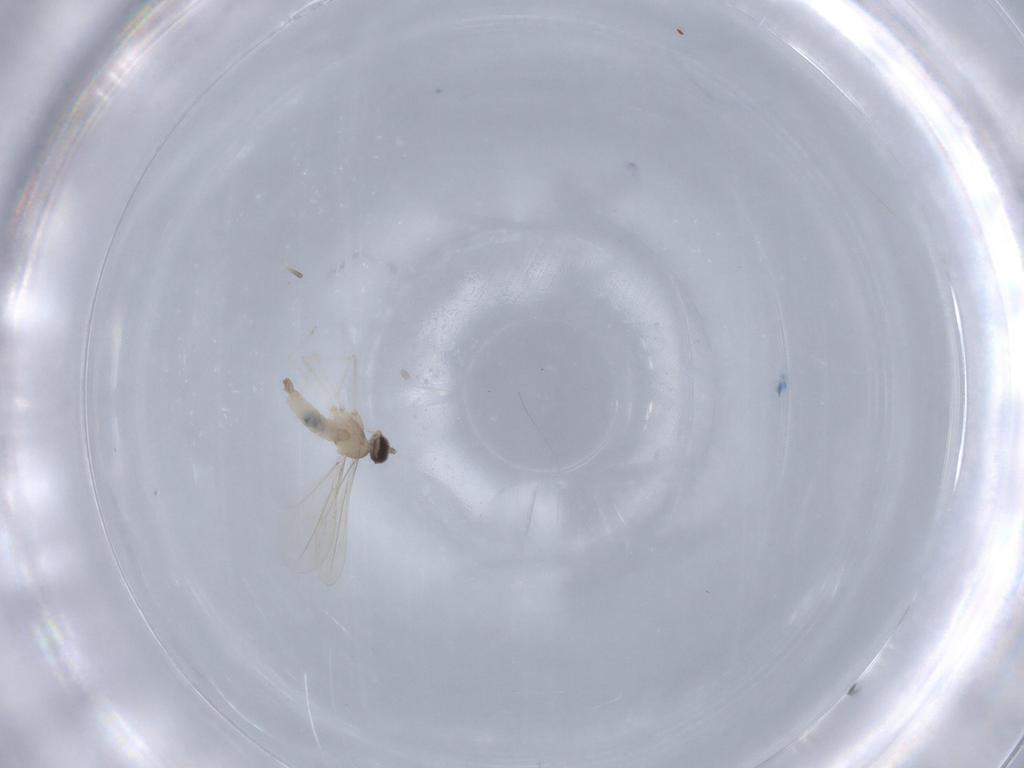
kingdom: Animalia
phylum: Arthropoda
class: Insecta
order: Diptera
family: Cecidomyiidae
